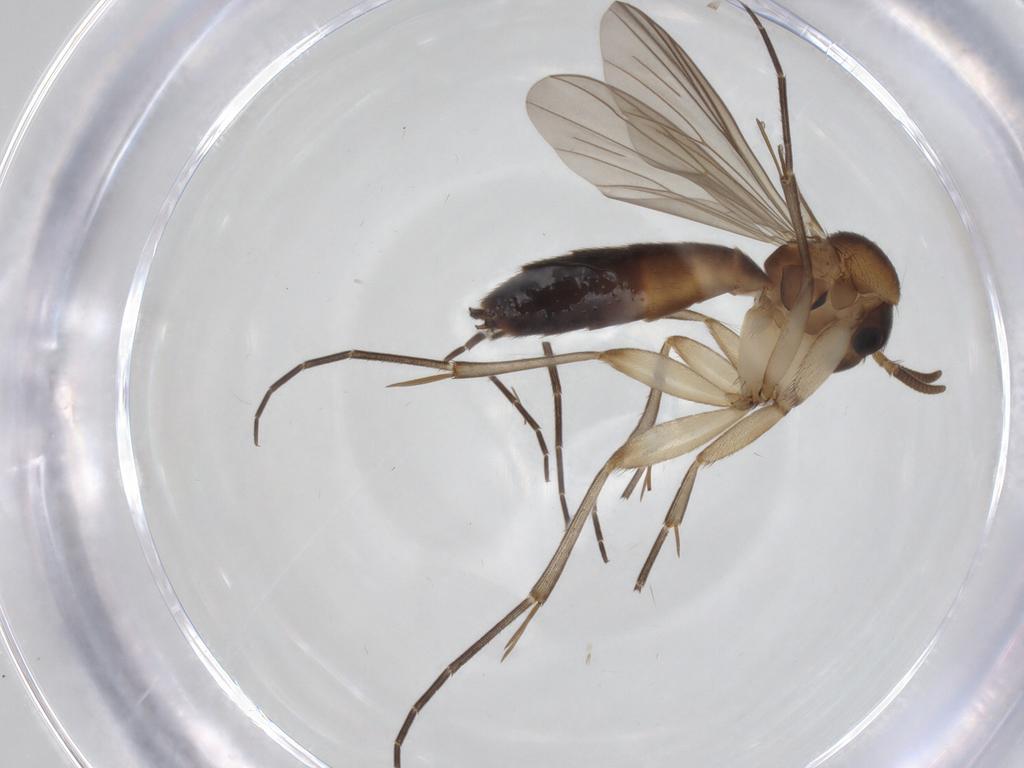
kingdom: Animalia
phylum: Arthropoda
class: Insecta
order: Diptera
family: Mycetophilidae
